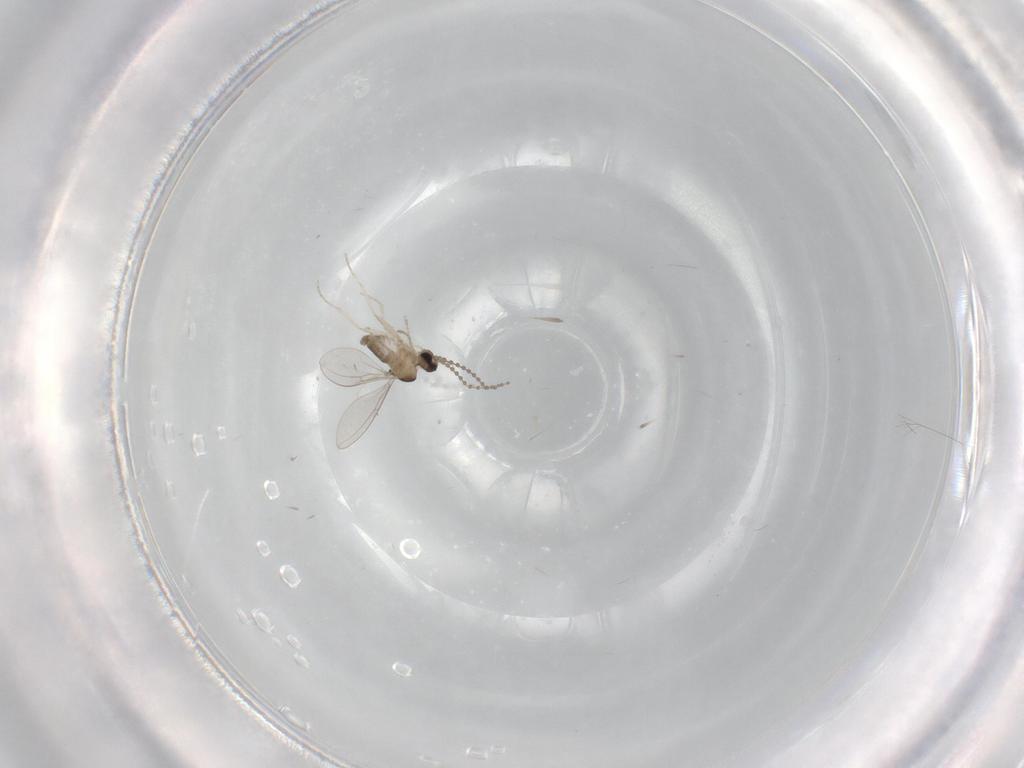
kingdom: Animalia
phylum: Arthropoda
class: Insecta
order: Diptera
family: Cecidomyiidae
